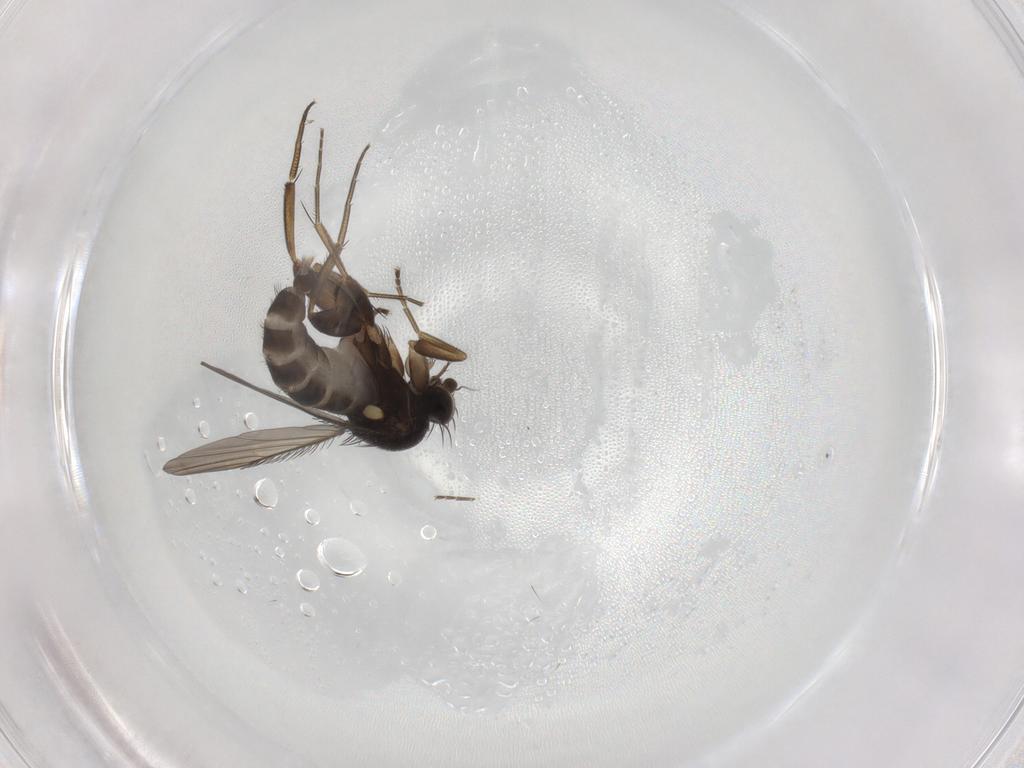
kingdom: Animalia
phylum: Arthropoda
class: Insecta
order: Diptera
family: Phoridae
